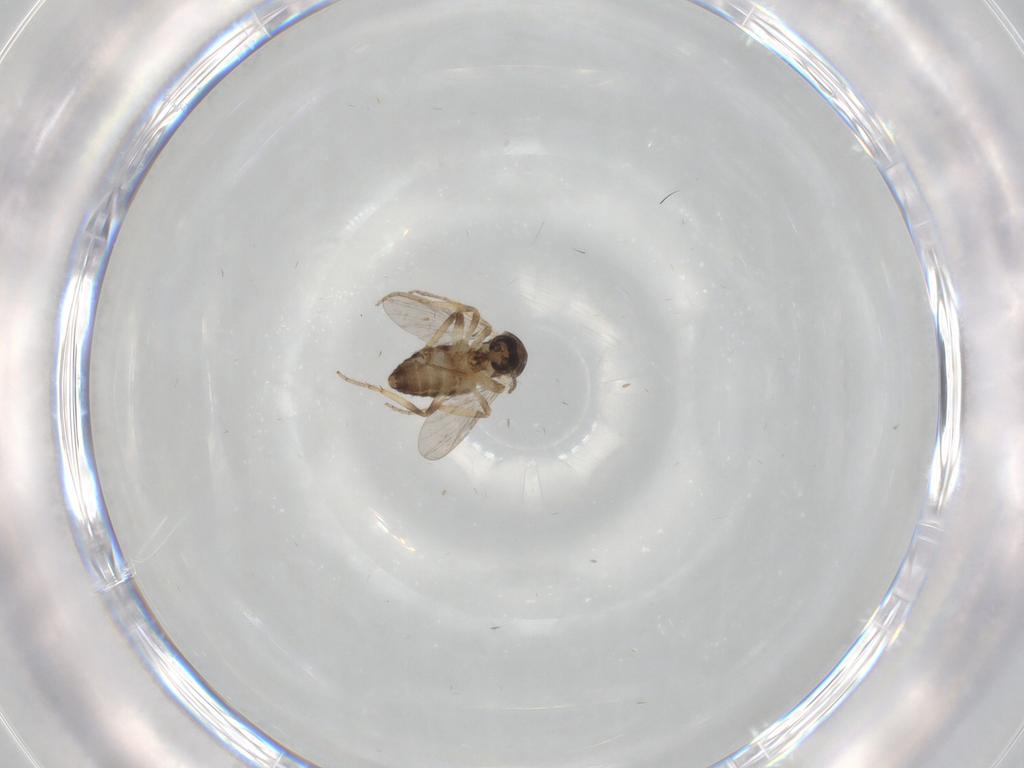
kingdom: Animalia
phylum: Arthropoda
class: Insecta
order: Diptera
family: Ceratopogonidae
